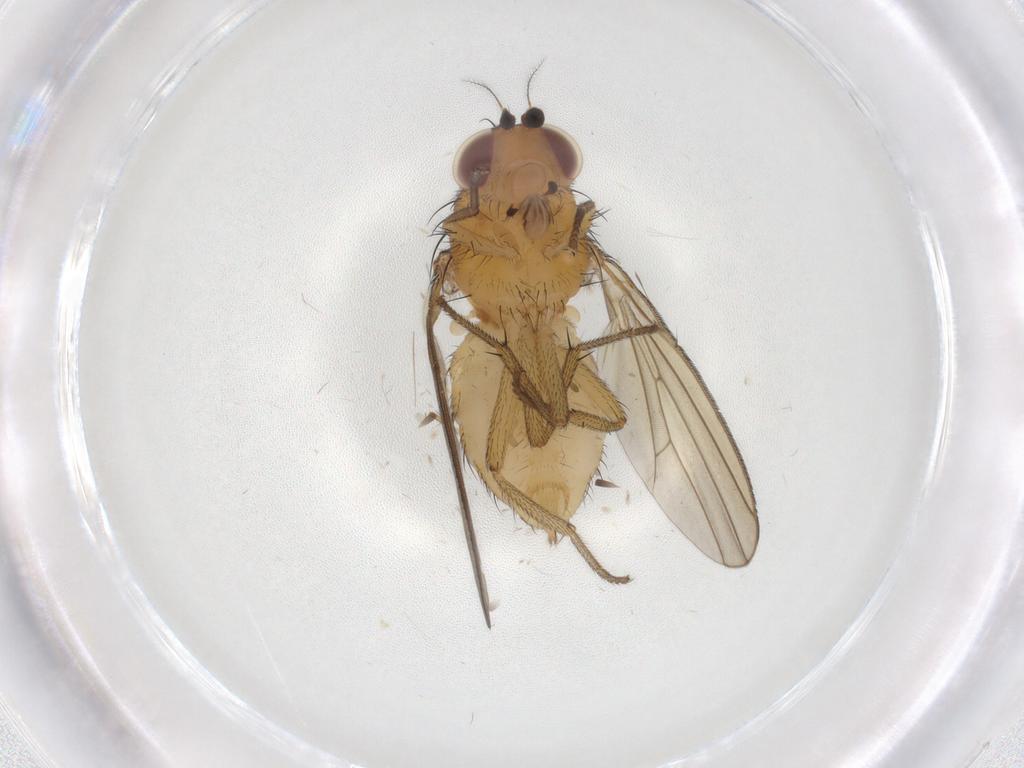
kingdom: Animalia
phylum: Arthropoda
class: Insecta
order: Diptera
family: Lauxaniidae
